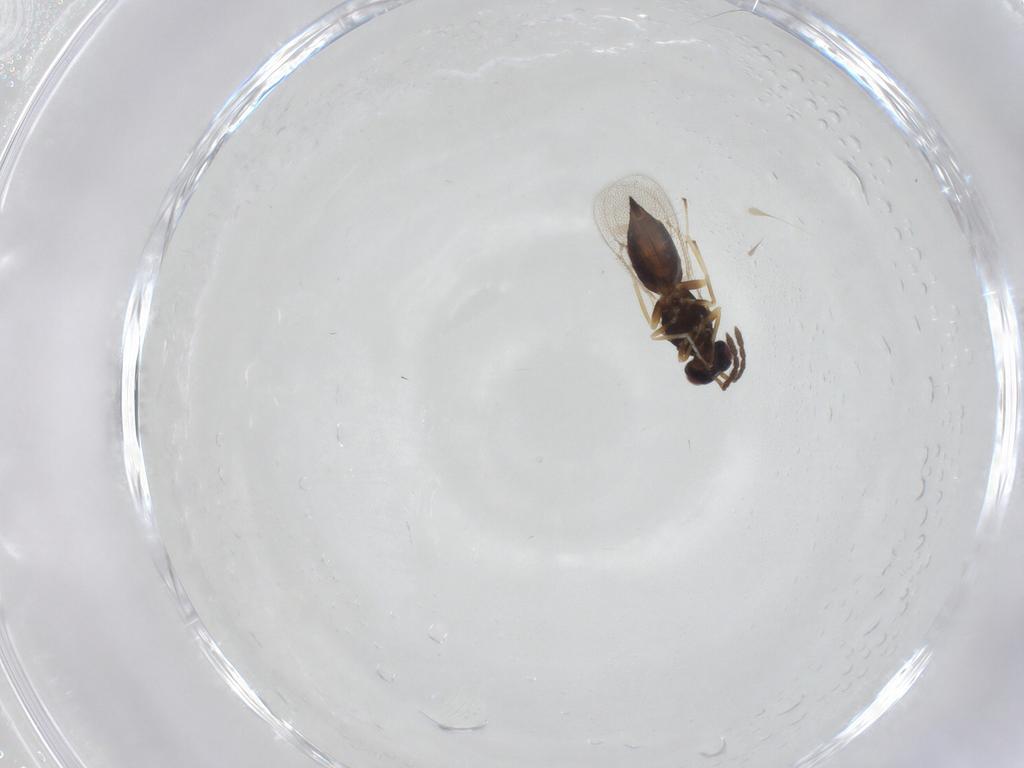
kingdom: Animalia
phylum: Arthropoda
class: Insecta
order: Hymenoptera
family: Eulophidae
